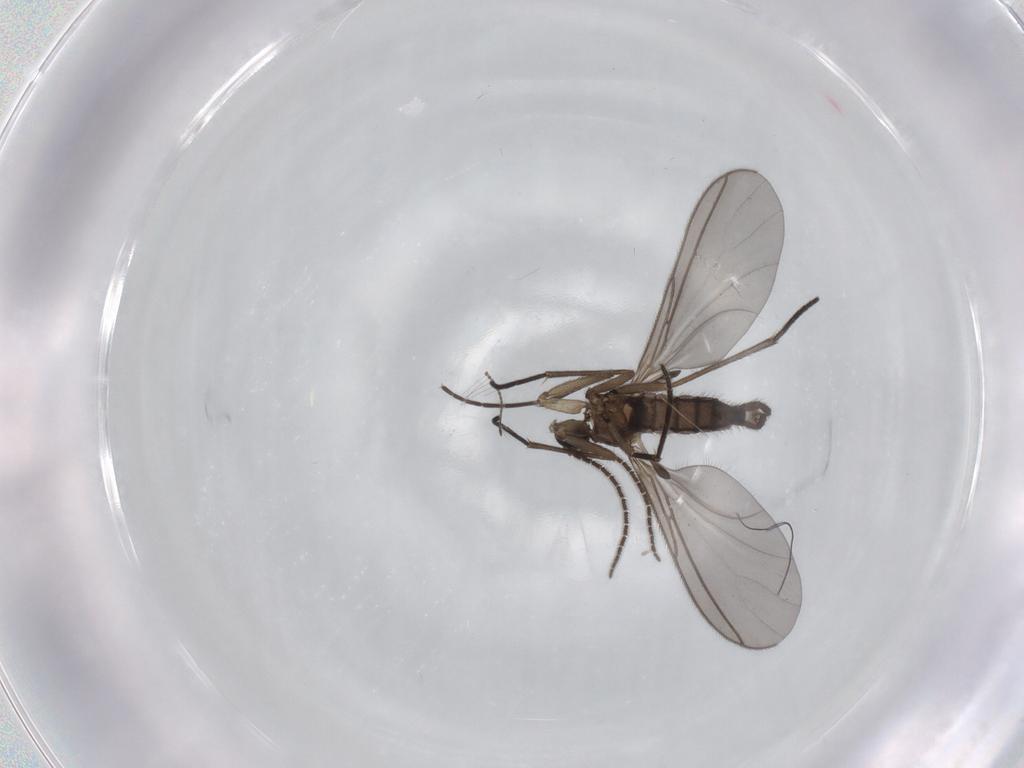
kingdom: Animalia
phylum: Arthropoda
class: Insecta
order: Diptera
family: Sciaridae
